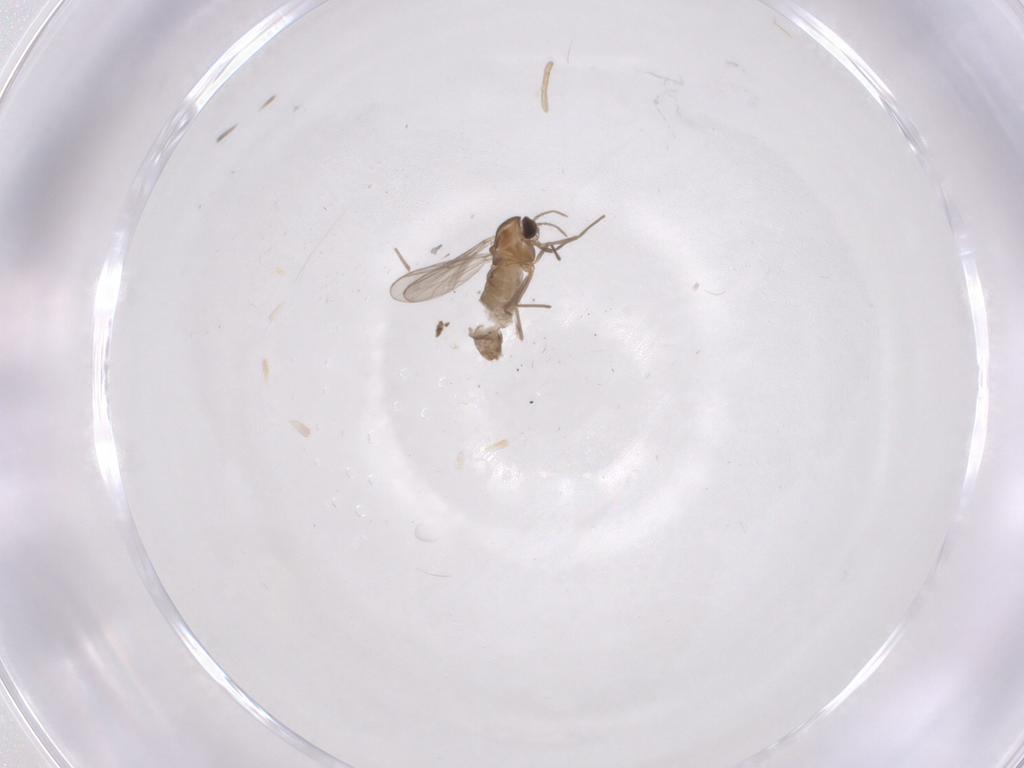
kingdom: Animalia
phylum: Arthropoda
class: Insecta
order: Diptera
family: Chironomidae
